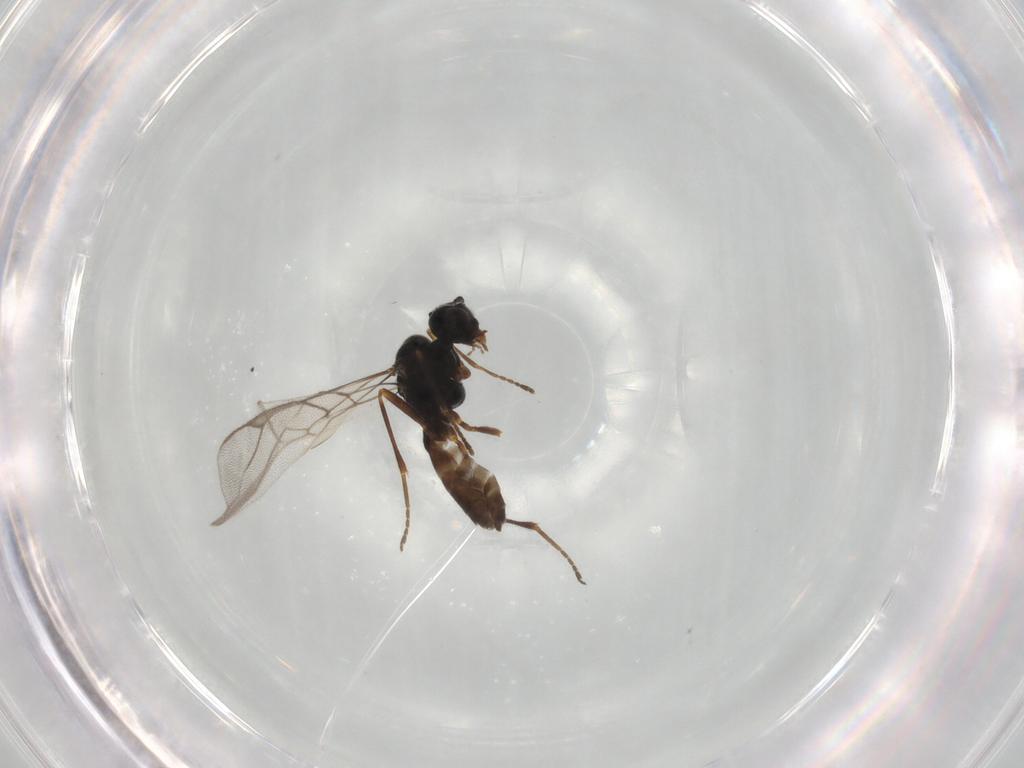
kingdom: Animalia
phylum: Arthropoda
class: Insecta
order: Hymenoptera
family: Braconidae
